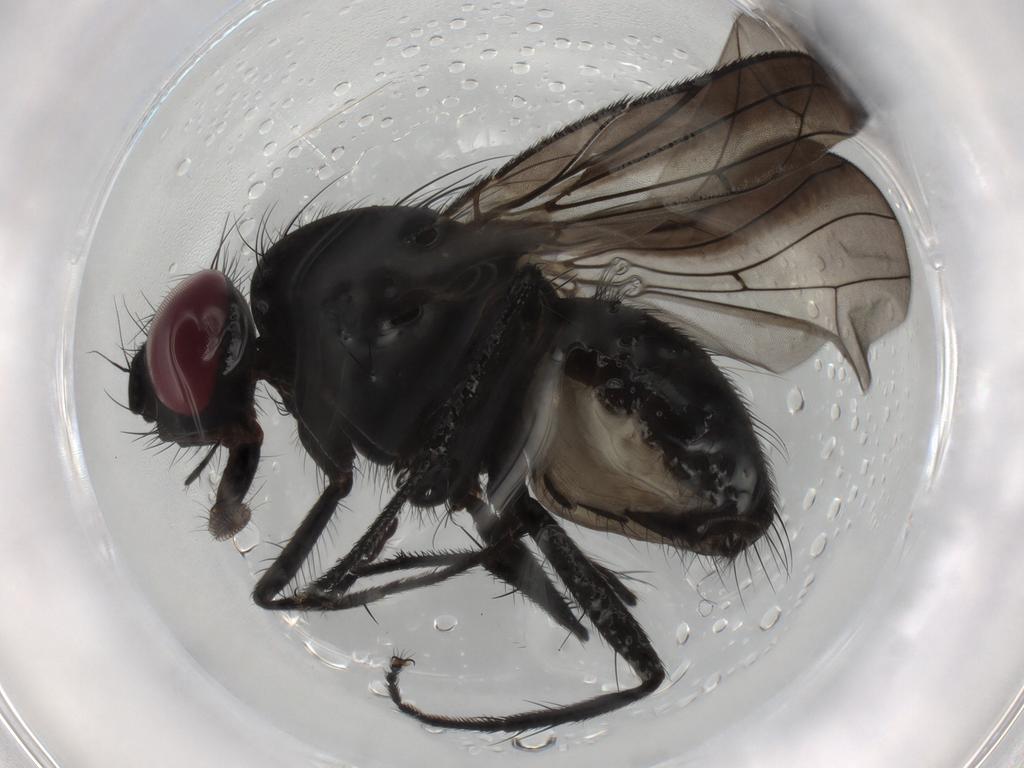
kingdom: Animalia
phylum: Arthropoda
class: Insecta
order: Diptera
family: Fannia
